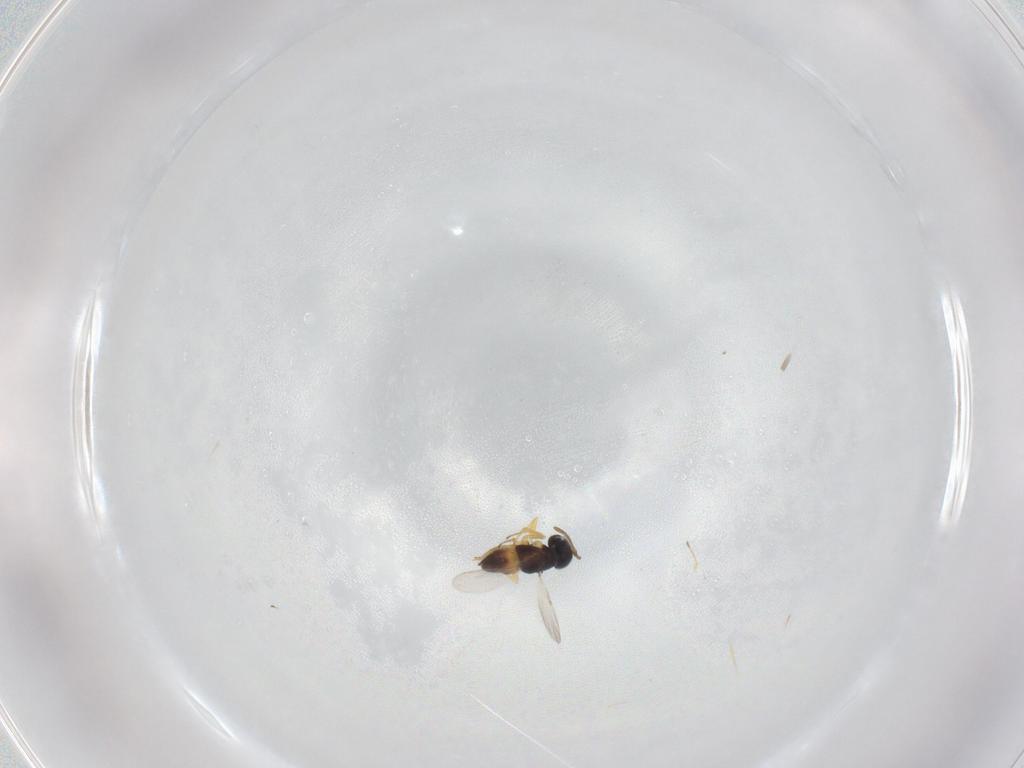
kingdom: Animalia
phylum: Arthropoda
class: Insecta
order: Hymenoptera
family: Encyrtidae
